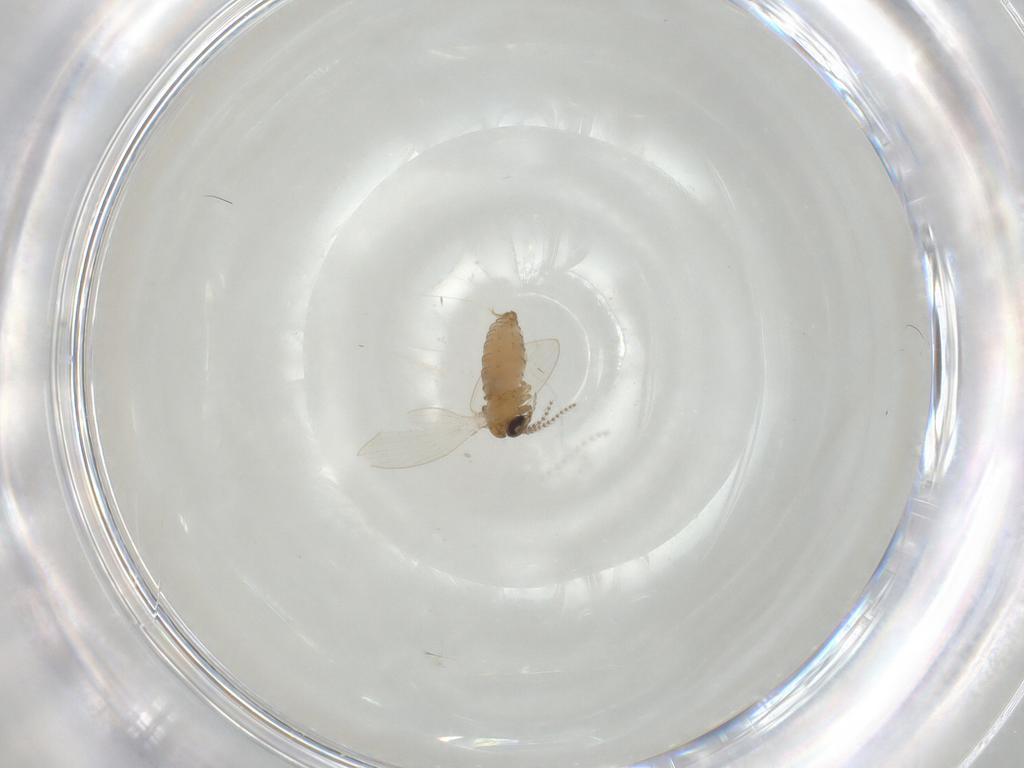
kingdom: Animalia
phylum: Arthropoda
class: Insecta
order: Diptera
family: Psychodidae
